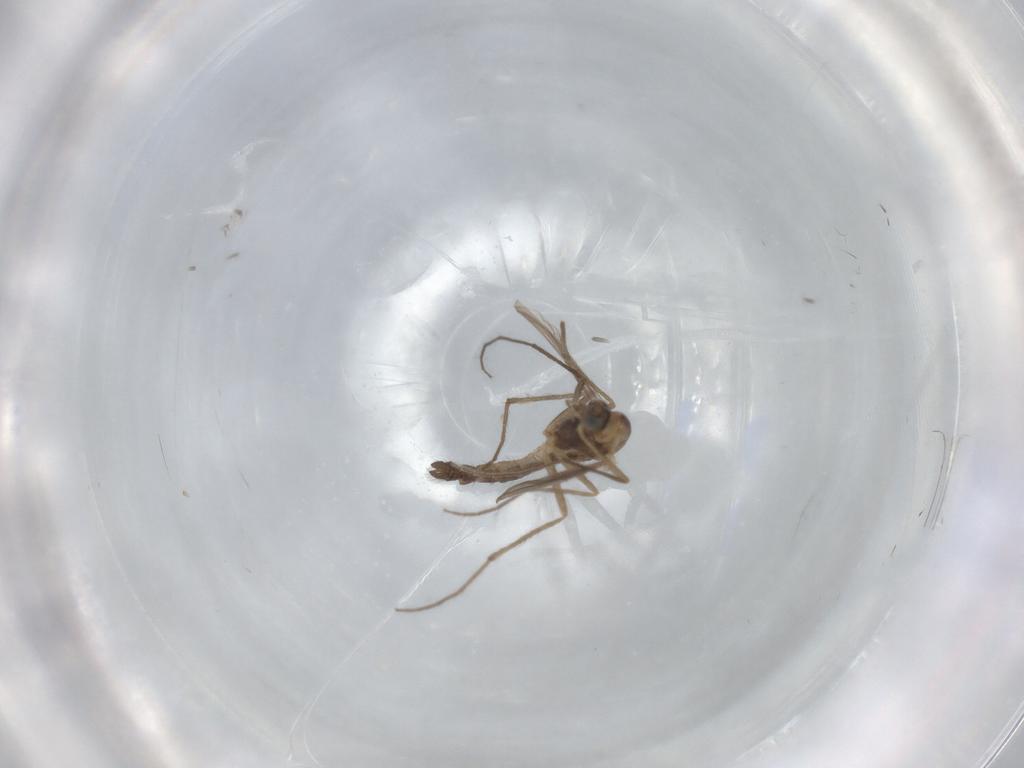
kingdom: Animalia
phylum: Arthropoda
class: Insecta
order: Diptera
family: Chironomidae
